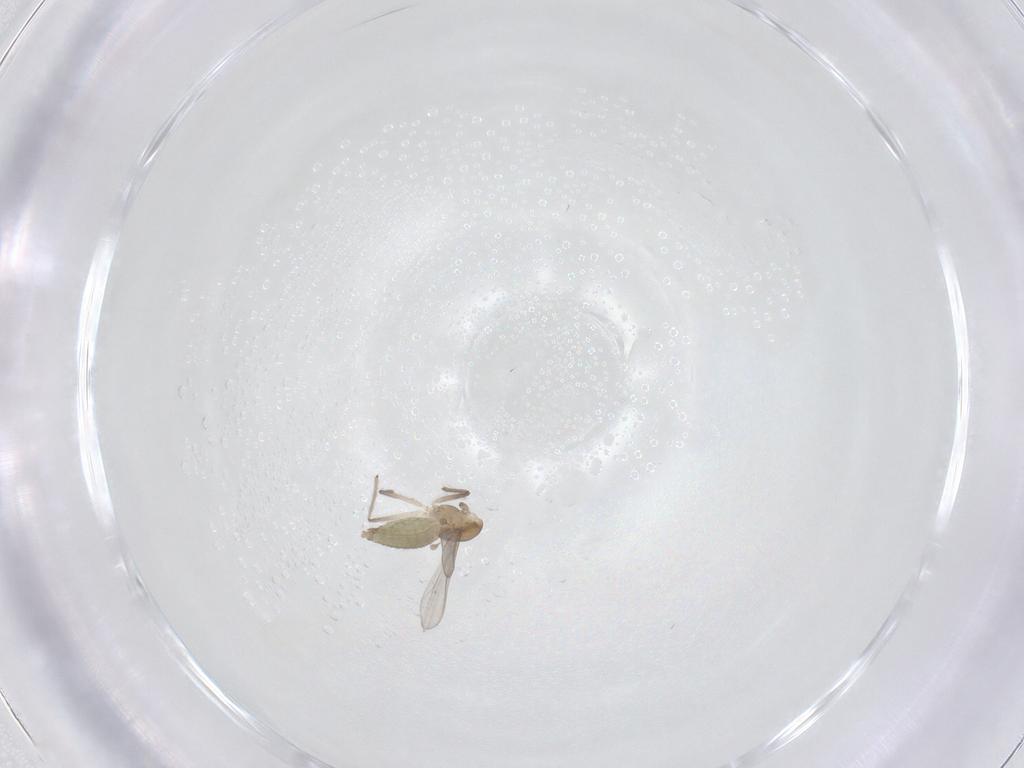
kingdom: Animalia
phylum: Arthropoda
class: Insecta
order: Diptera
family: Chironomidae
